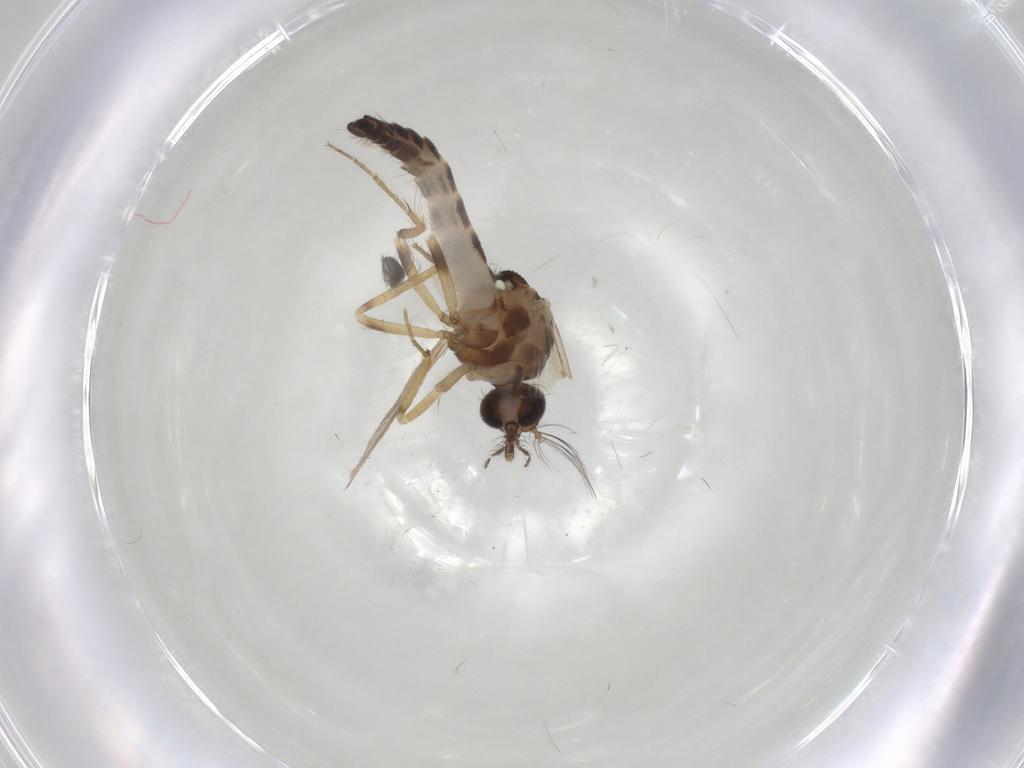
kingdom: Animalia
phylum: Arthropoda
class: Insecta
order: Diptera
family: Ceratopogonidae
